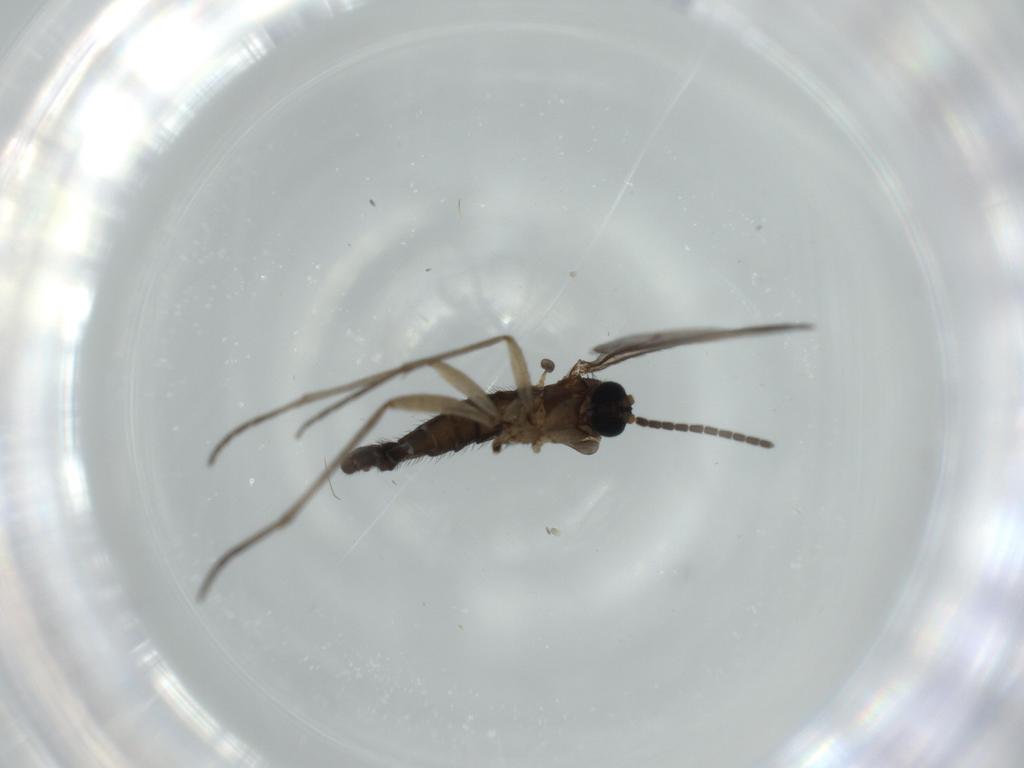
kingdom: Animalia
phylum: Arthropoda
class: Insecta
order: Diptera
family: Sciaridae
